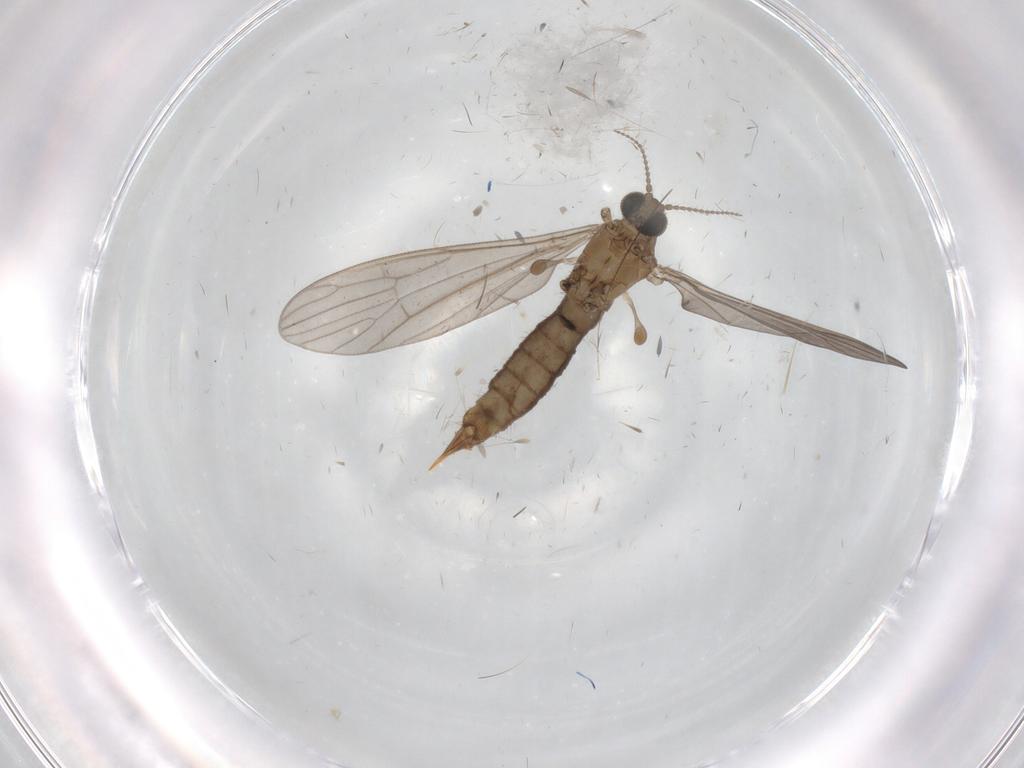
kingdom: Animalia
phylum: Arthropoda
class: Insecta
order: Diptera
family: Limoniidae
